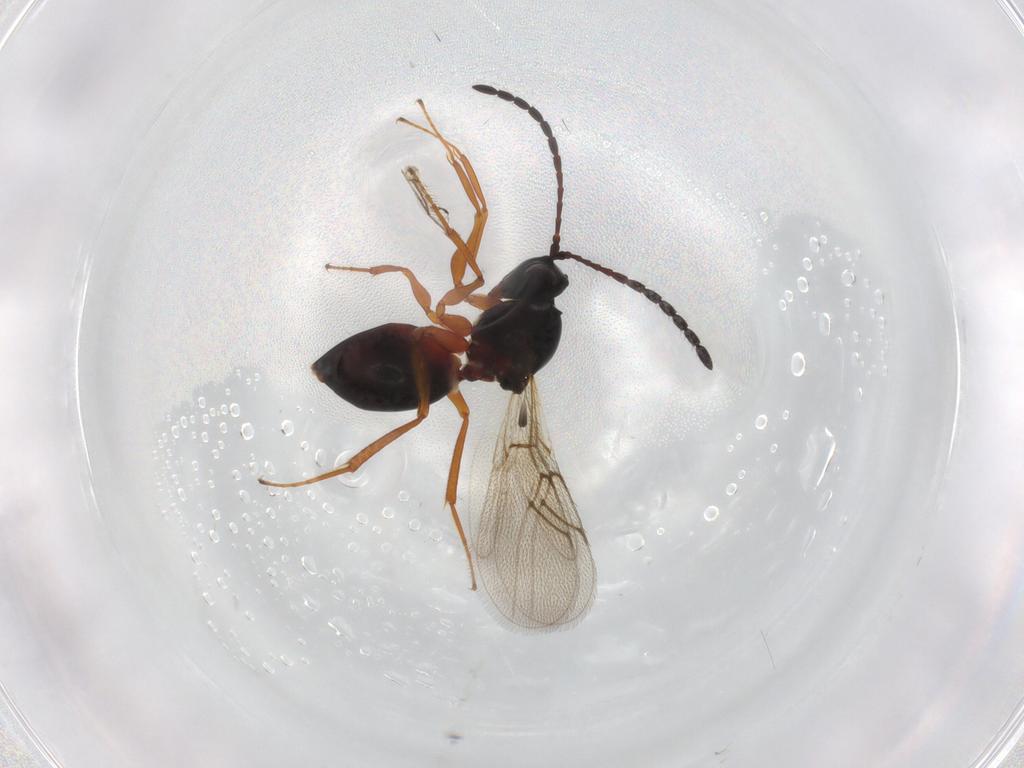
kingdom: Animalia
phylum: Arthropoda
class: Insecta
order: Hymenoptera
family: Figitidae
